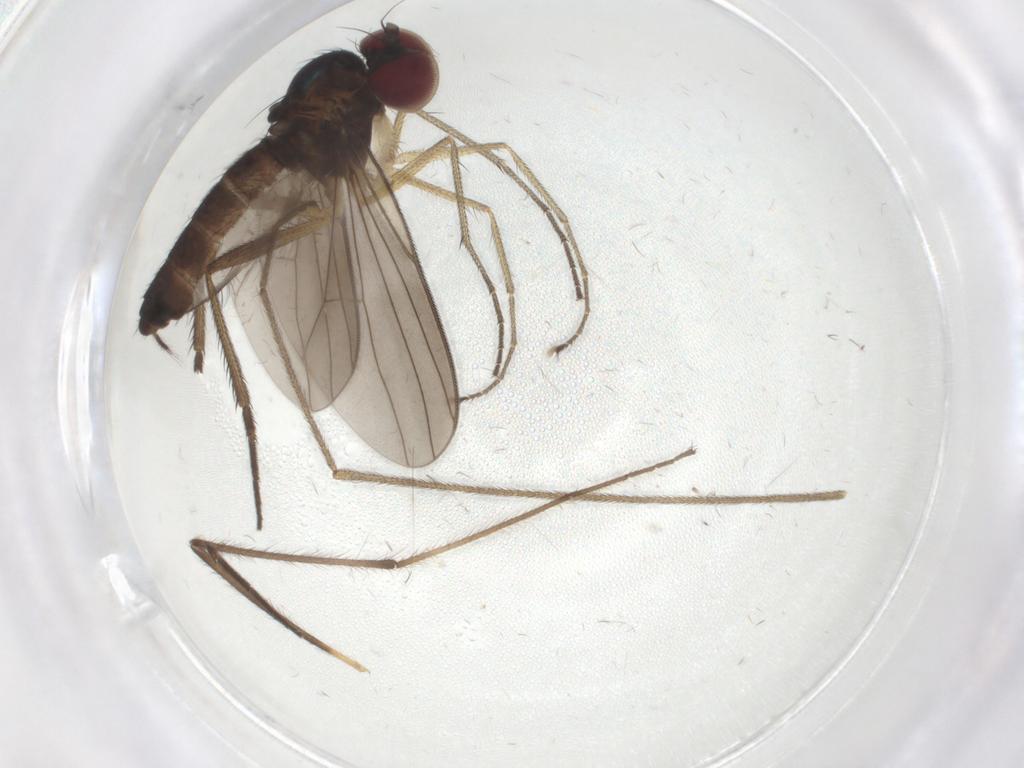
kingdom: Animalia
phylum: Arthropoda
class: Insecta
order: Diptera
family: Limoniidae
